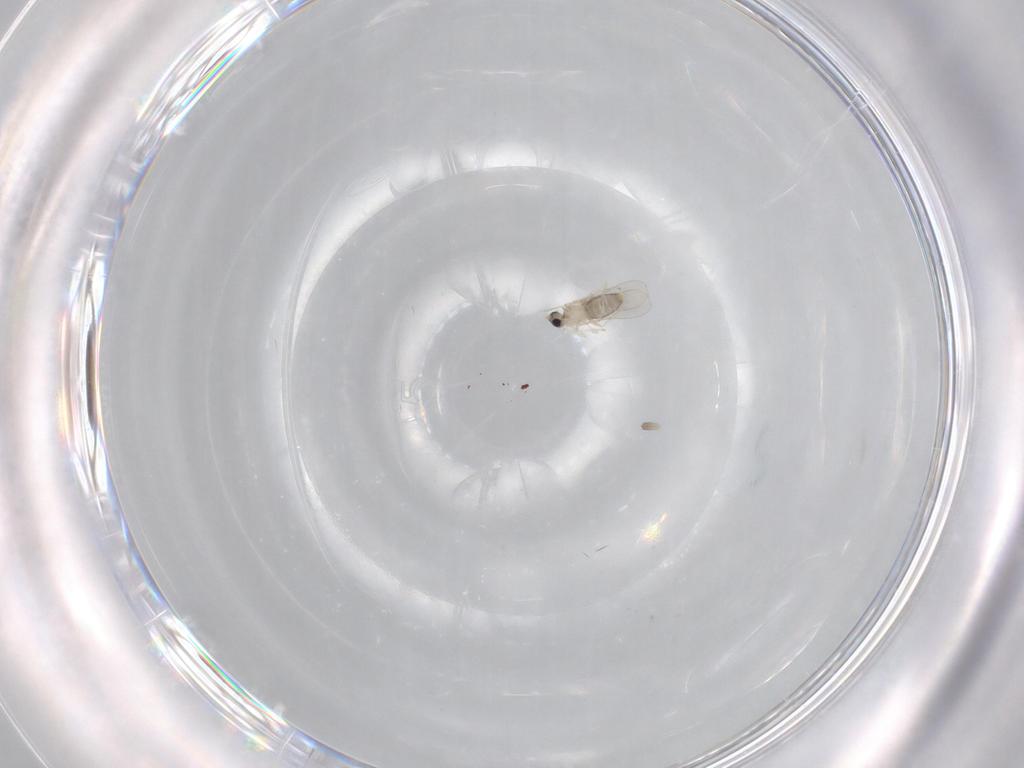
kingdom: Animalia
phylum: Arthropoda
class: Insecta
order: Diptera
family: Cecidomyiidae
